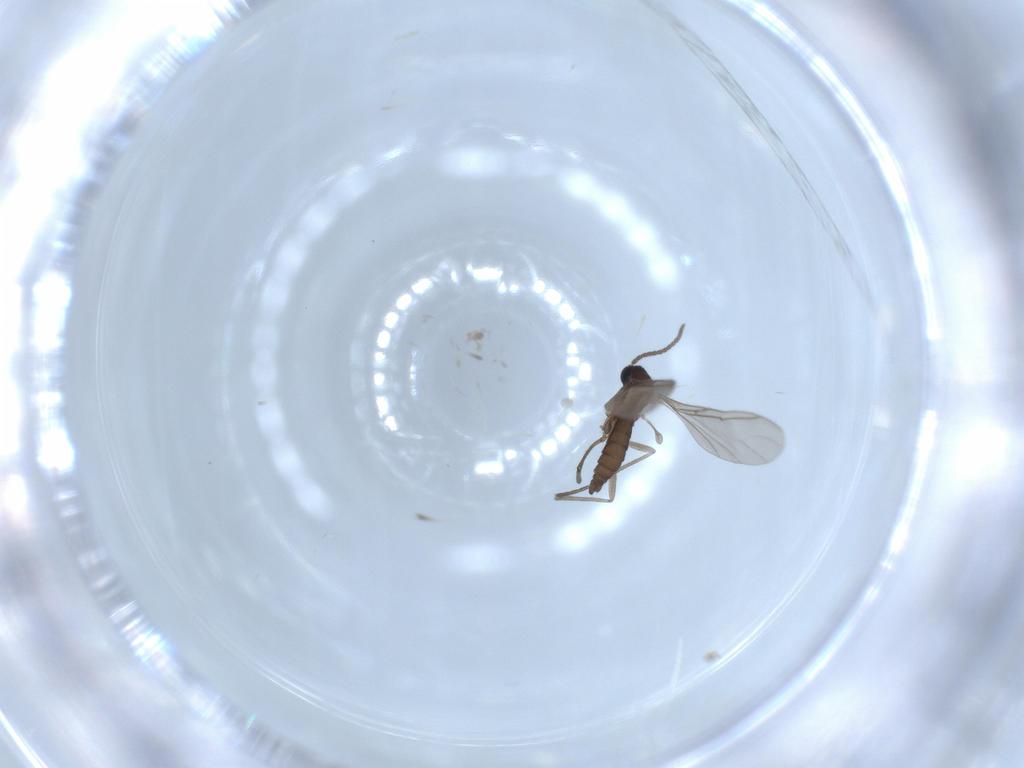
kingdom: Animalia
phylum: Arthropoda
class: Insecta
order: Diptera
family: Sciaridae
